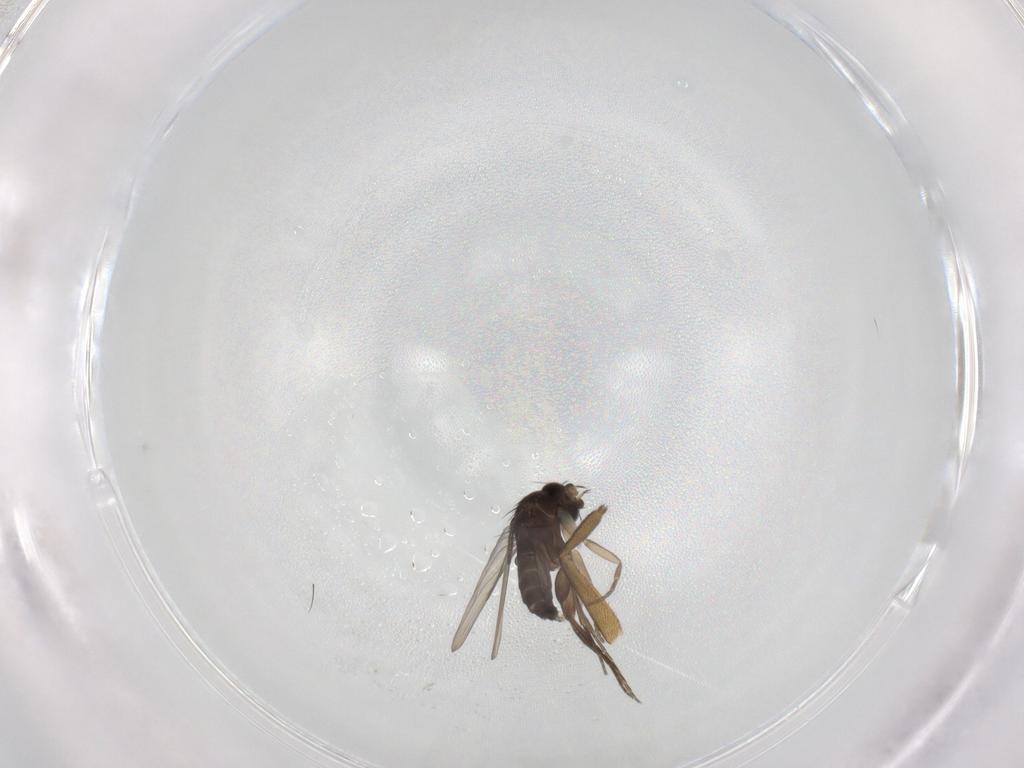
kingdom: Animalia
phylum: Arthropoda
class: Insecta
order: Diptera
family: Phoridae
